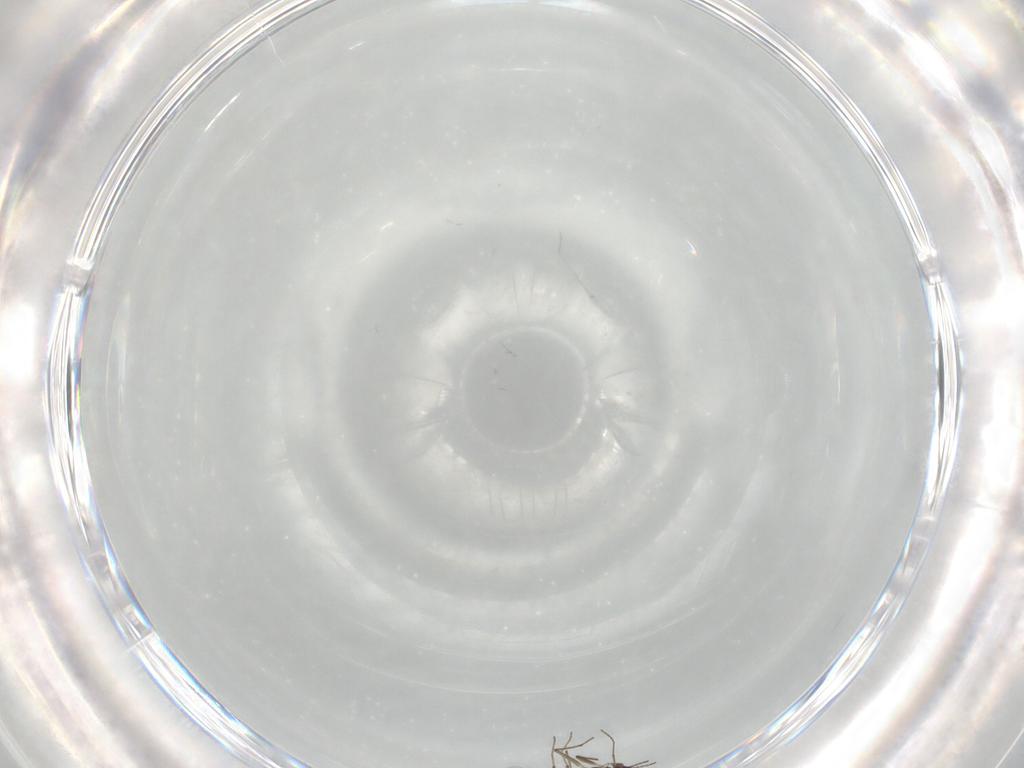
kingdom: Animalia
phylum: Arthropoda
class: Insecta
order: Diptera
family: Chironomidae
